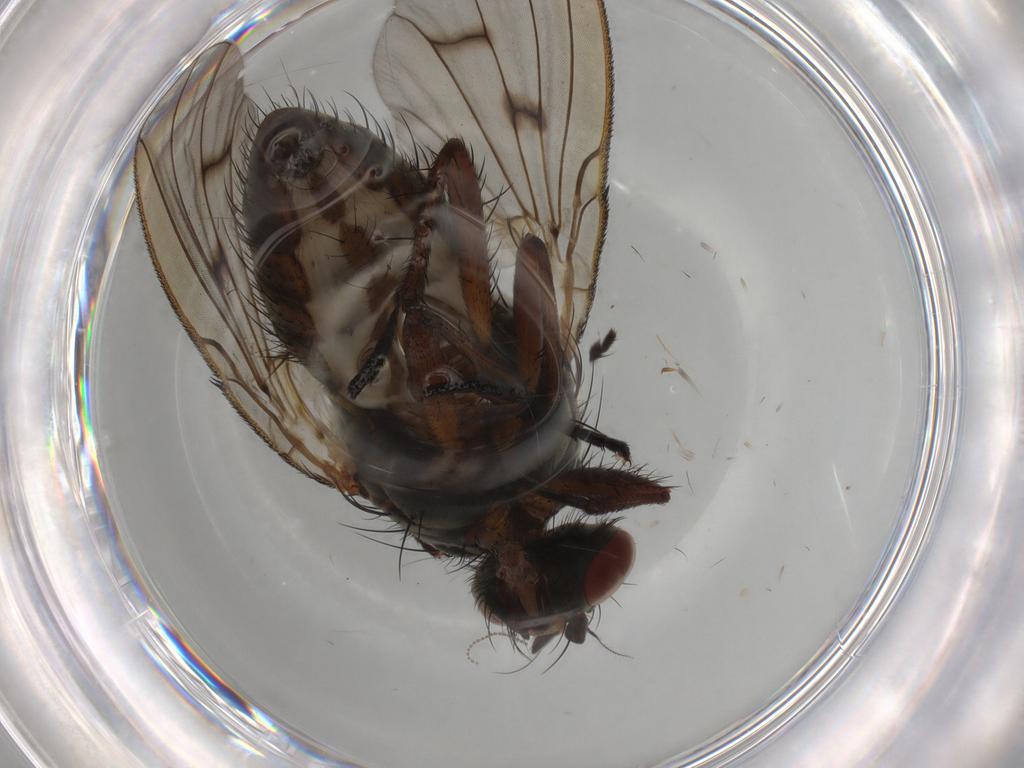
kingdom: Animalia
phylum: Arthropoda
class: Insecta
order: Diptera
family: Anthomyiidae
